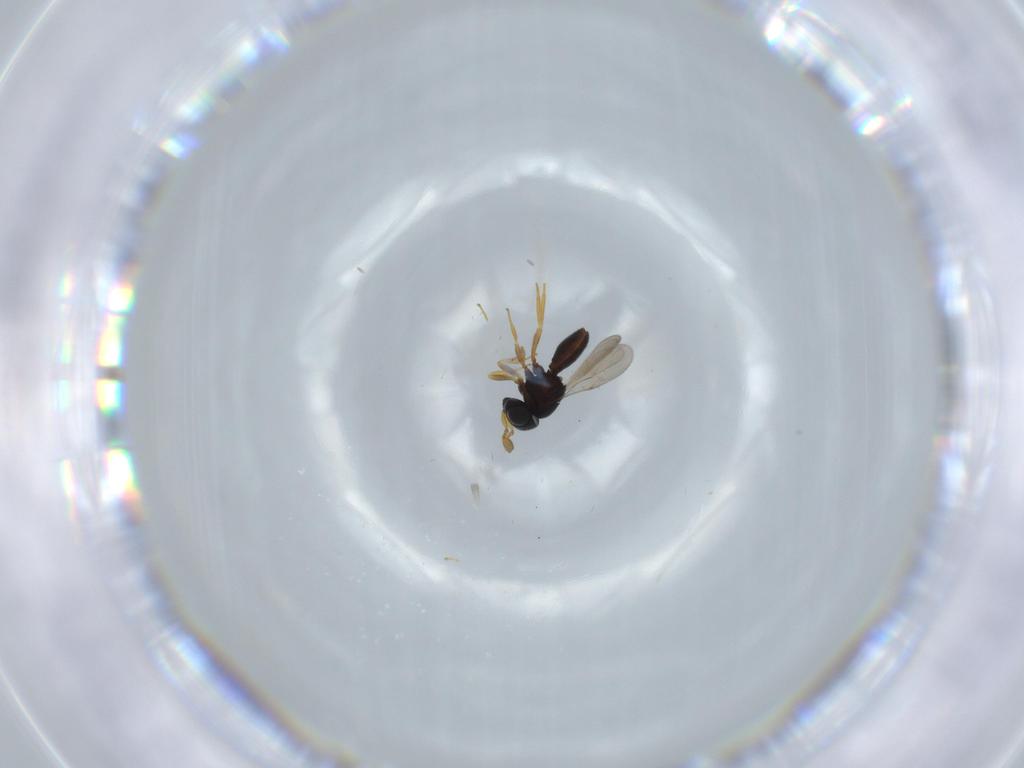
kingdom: Animalia
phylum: Arthropoda
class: Insecta
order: Hymenoptera
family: Scelionidae
